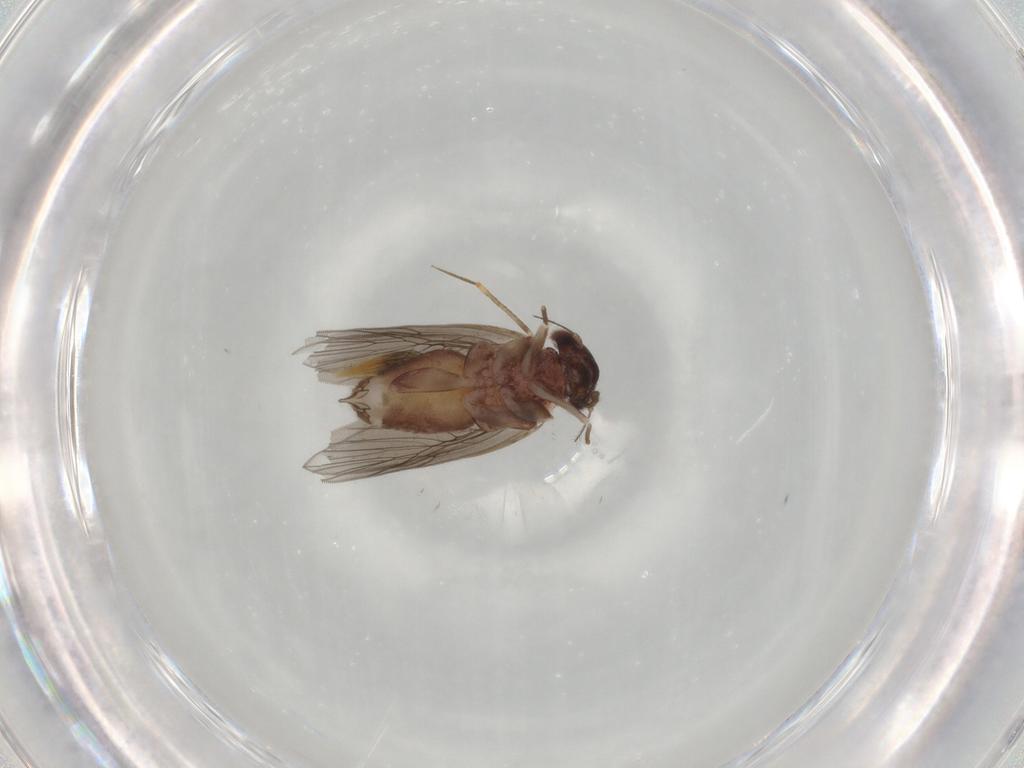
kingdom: Animalia
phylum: Arthropoda
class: Insecta
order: Psocodea
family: Lepidopsocidae
